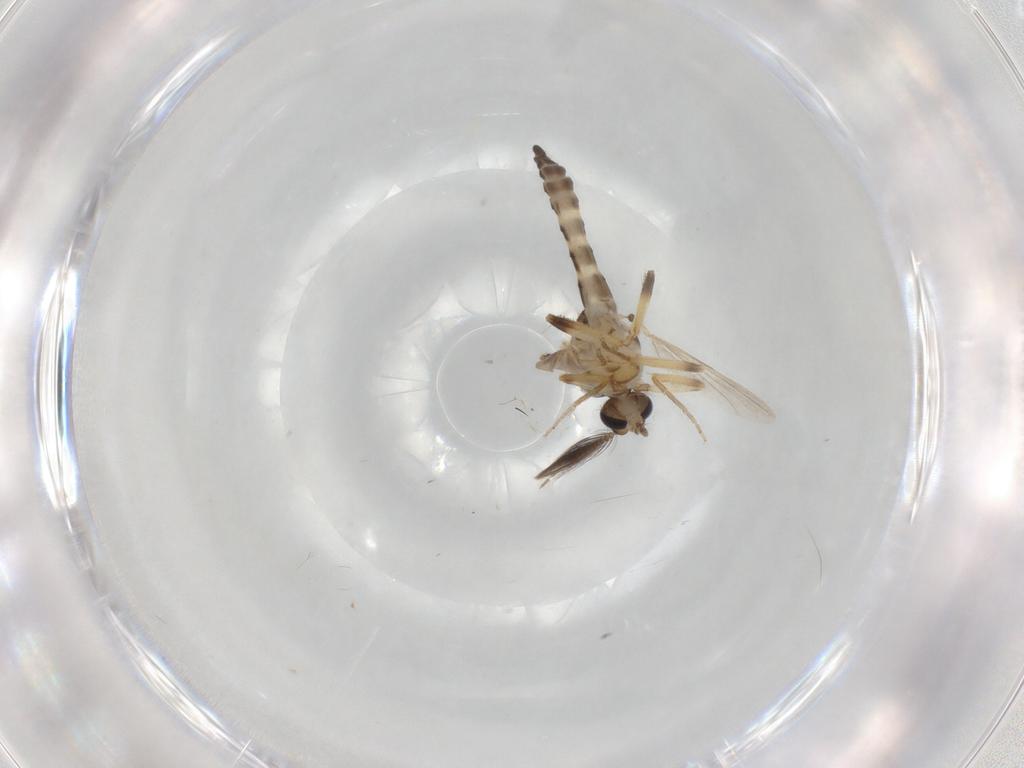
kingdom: Animalia
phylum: Arthropoda
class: Insecta
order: Diptera
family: Ceratopogonidae
